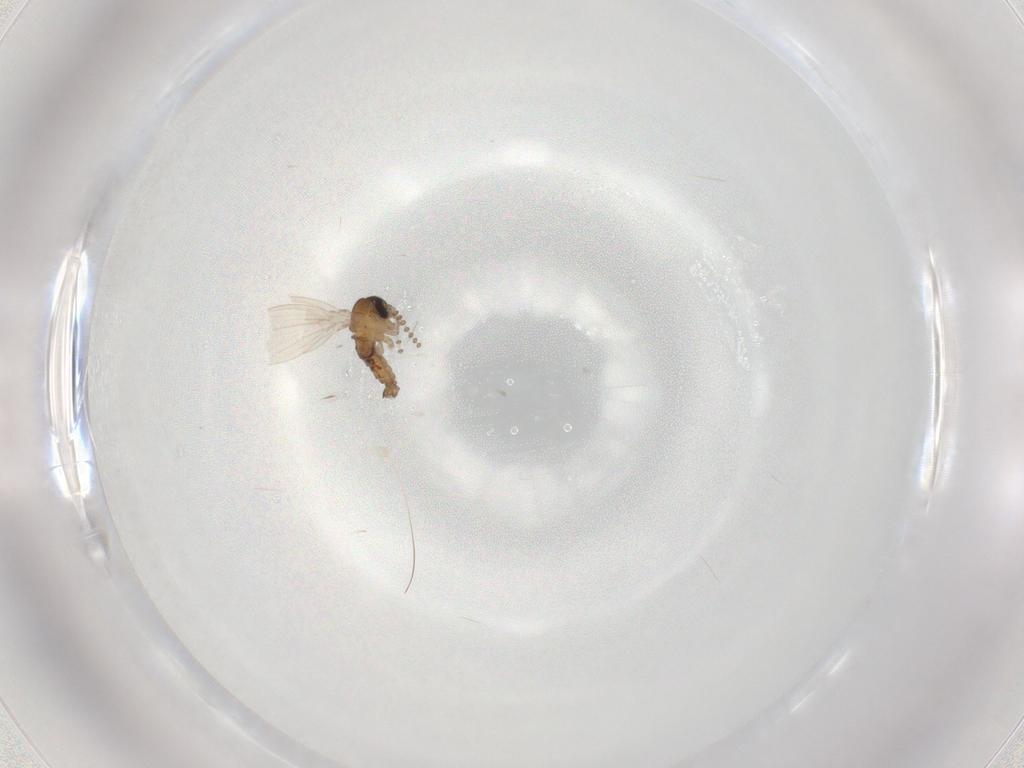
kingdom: Animalia
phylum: Arthropoda
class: Insecta
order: Diptera
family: Psychodidae
